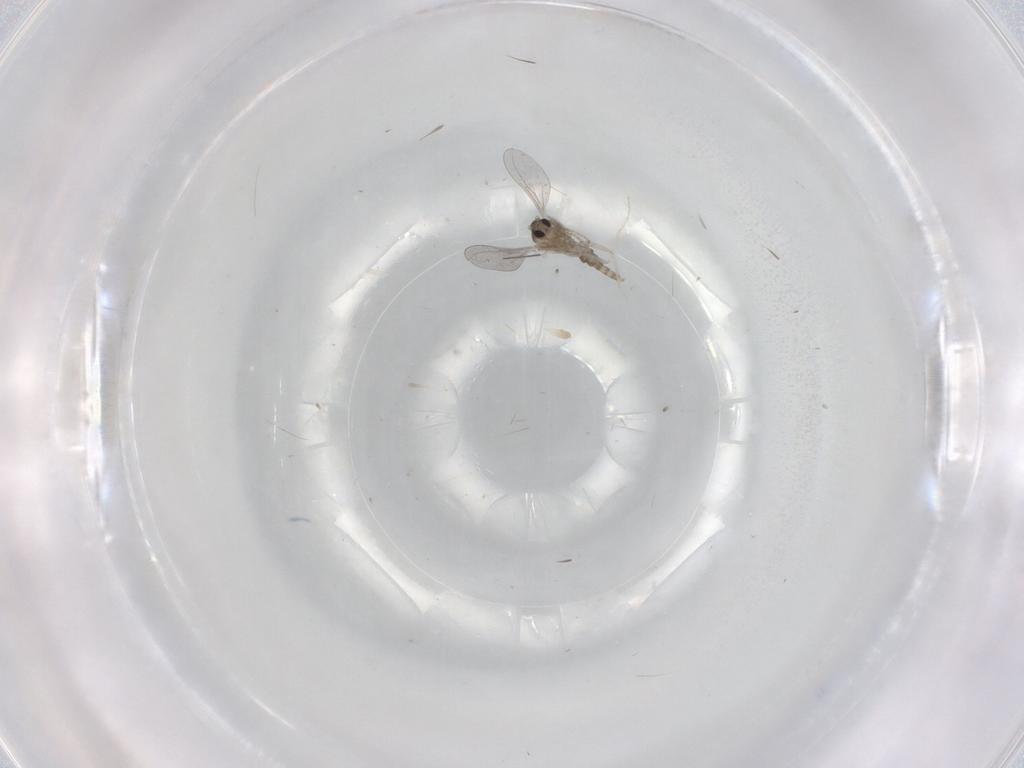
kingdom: Animalia
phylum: Arthropoda
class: Insecta
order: Diptera
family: Cecidomyiidae
